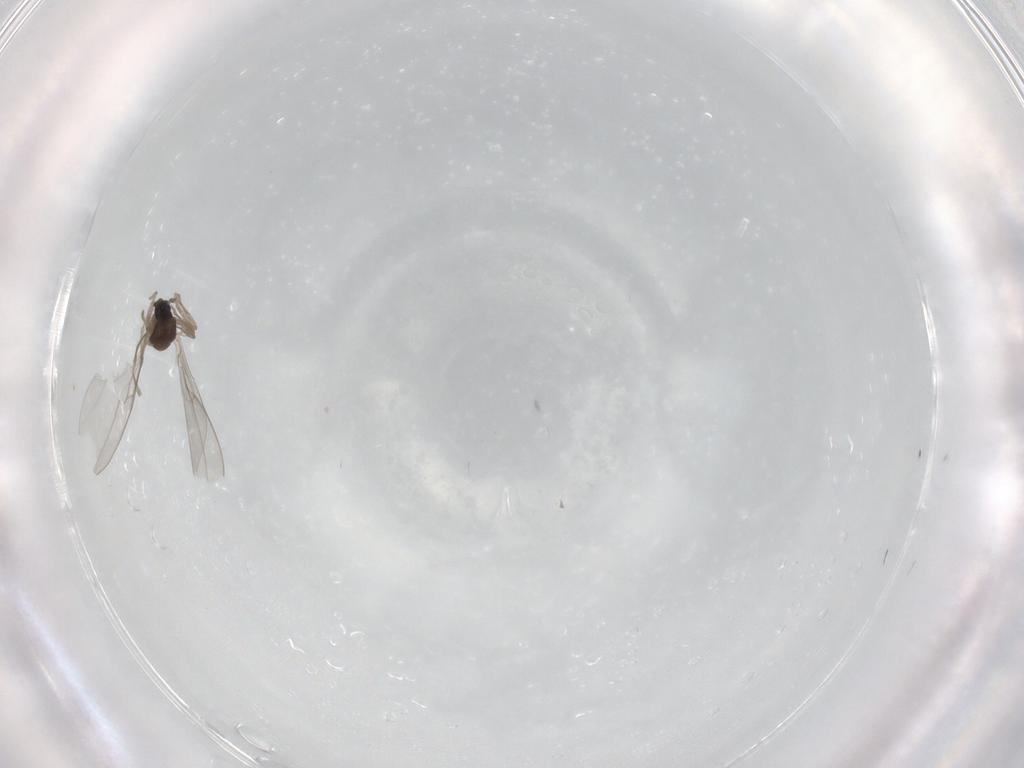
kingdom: Animalia
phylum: Arthropoda
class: Insecta
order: Diptera
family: Cecidomyiidae
